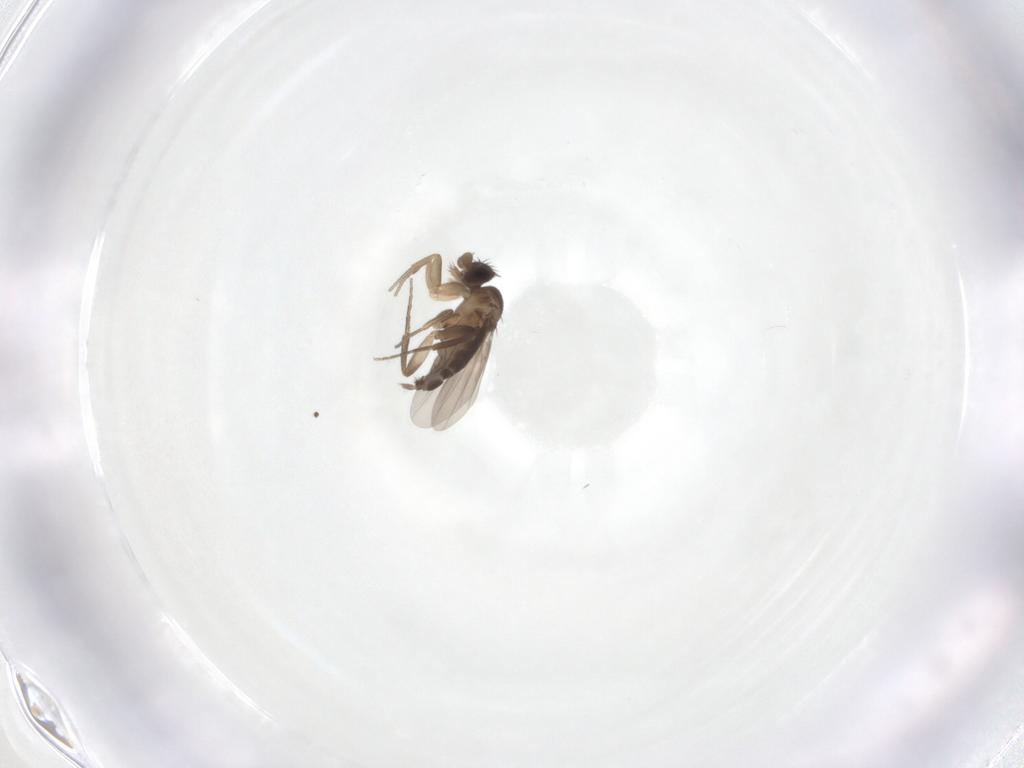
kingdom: Animalia
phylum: Arthropoda
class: Insecta
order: Diptera
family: Phoridae
